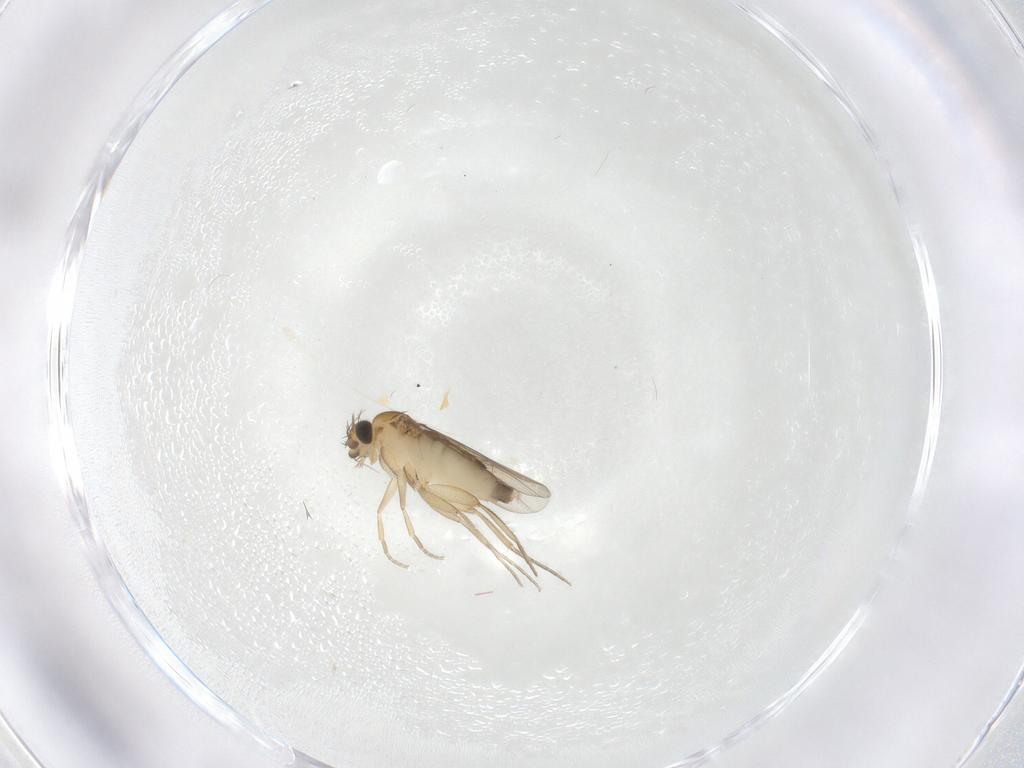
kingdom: Animalia
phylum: Arthropoda
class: Insecta
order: Diptera
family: Phoridae
